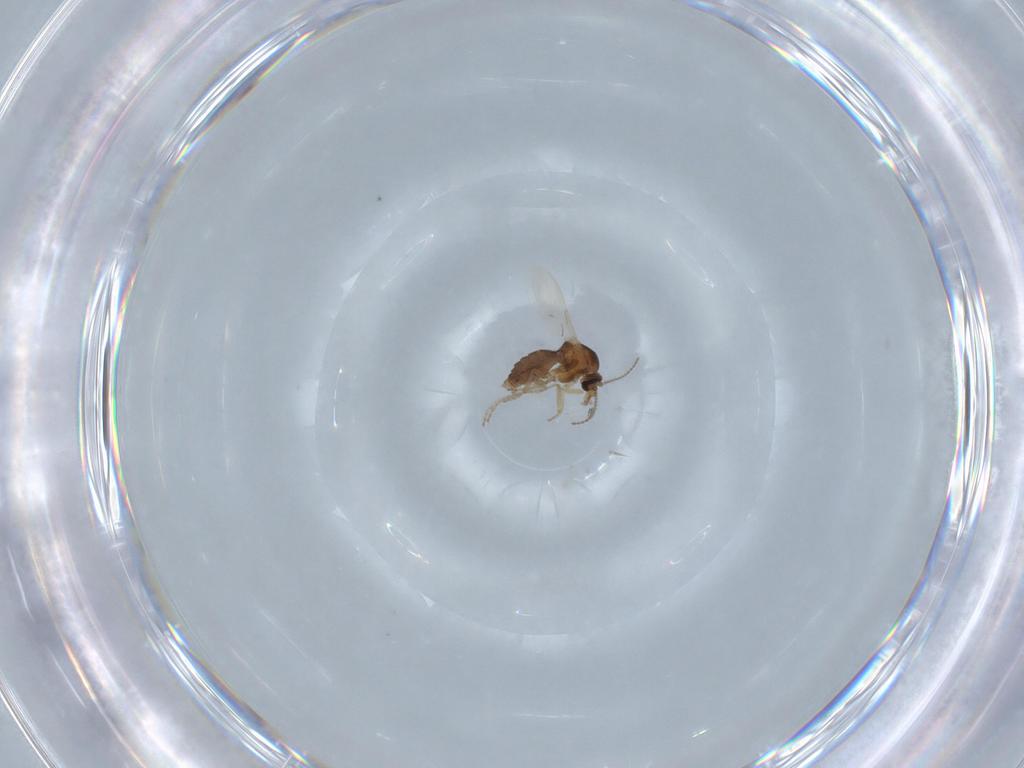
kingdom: Animalia
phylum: Arthropoda
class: Insecta
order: Diptera
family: Ceratopogonidae
